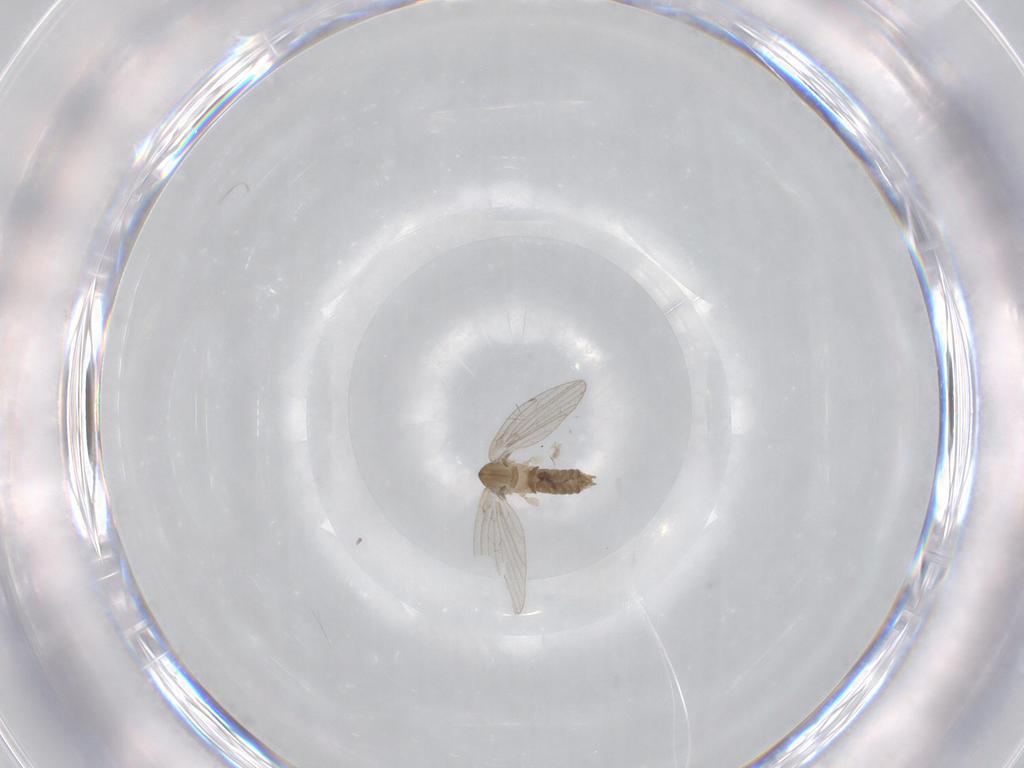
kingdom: Animalia
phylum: Arthropoda
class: Insecta
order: Diptera
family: Psychodidae
